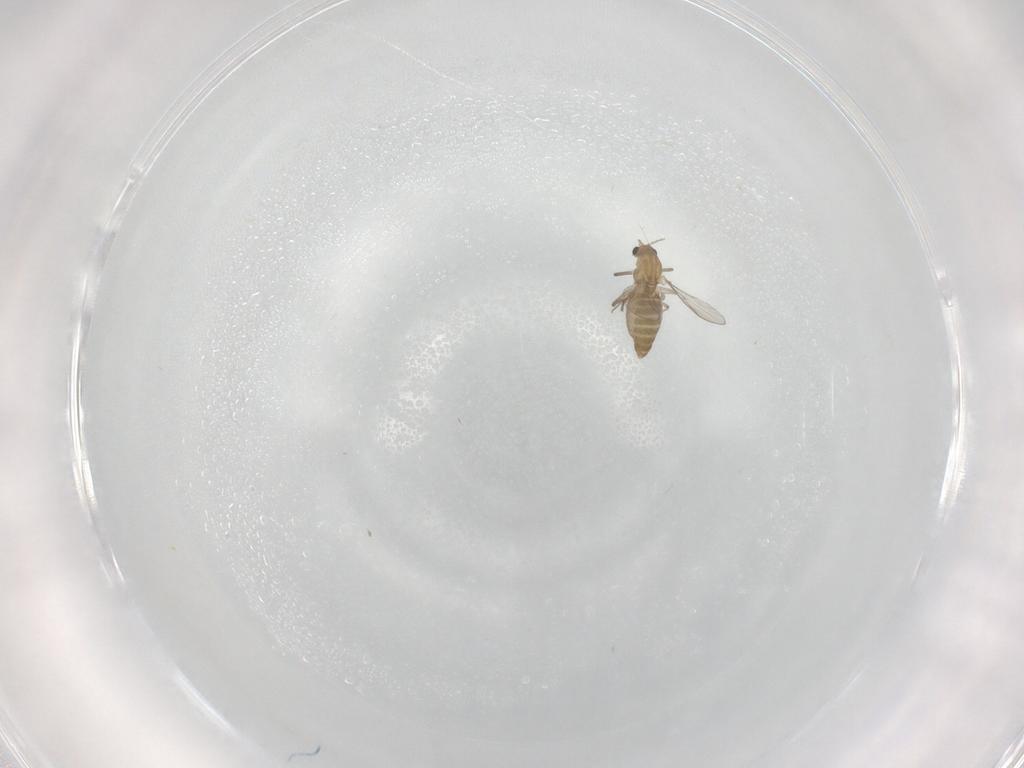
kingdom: Animalia
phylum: Arthropoda
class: Insecta
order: Diptera
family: Chironomidae
